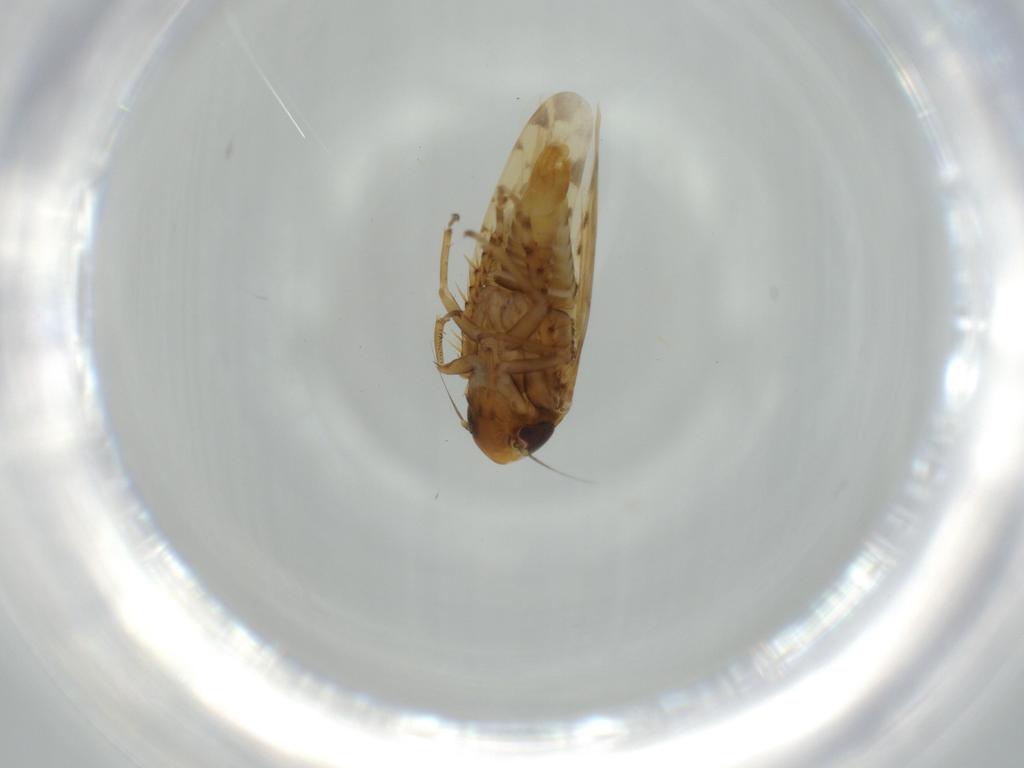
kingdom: Animalia
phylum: Arthropoda
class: Insecta
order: Hemiptera
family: Cicadellidae
